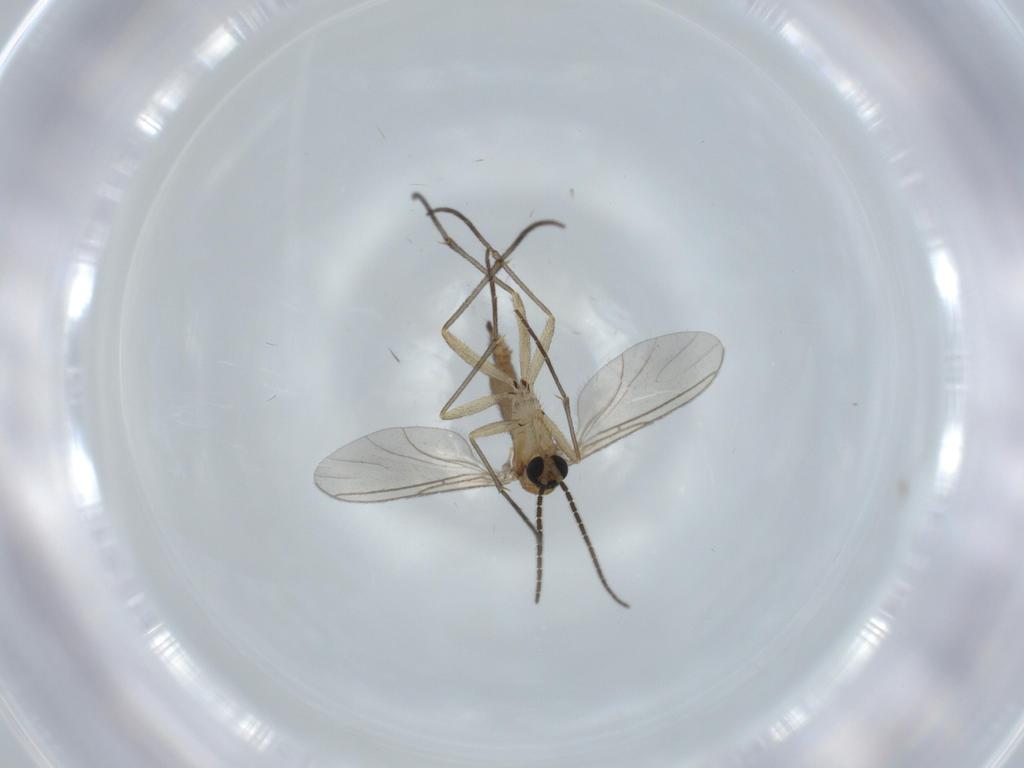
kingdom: Animalia
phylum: Arthropoda
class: Insecta
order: Diptera
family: Sciaridae
